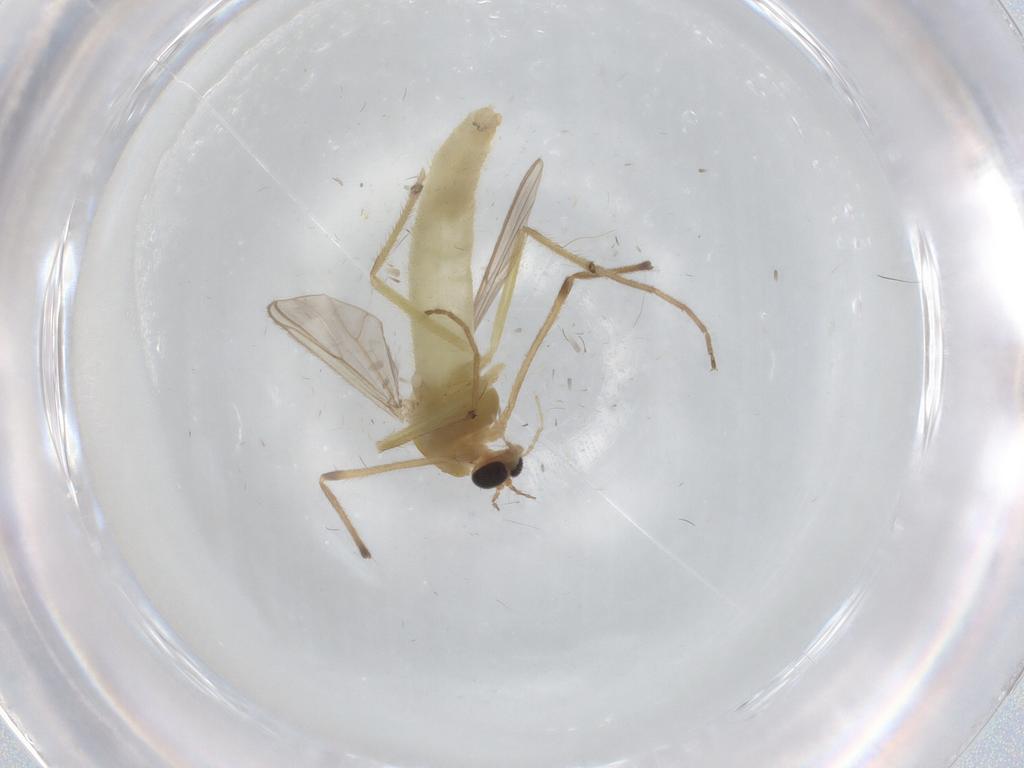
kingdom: Animalia
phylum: Arthropoda
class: Insecta
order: Diptera
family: Chironomidae
